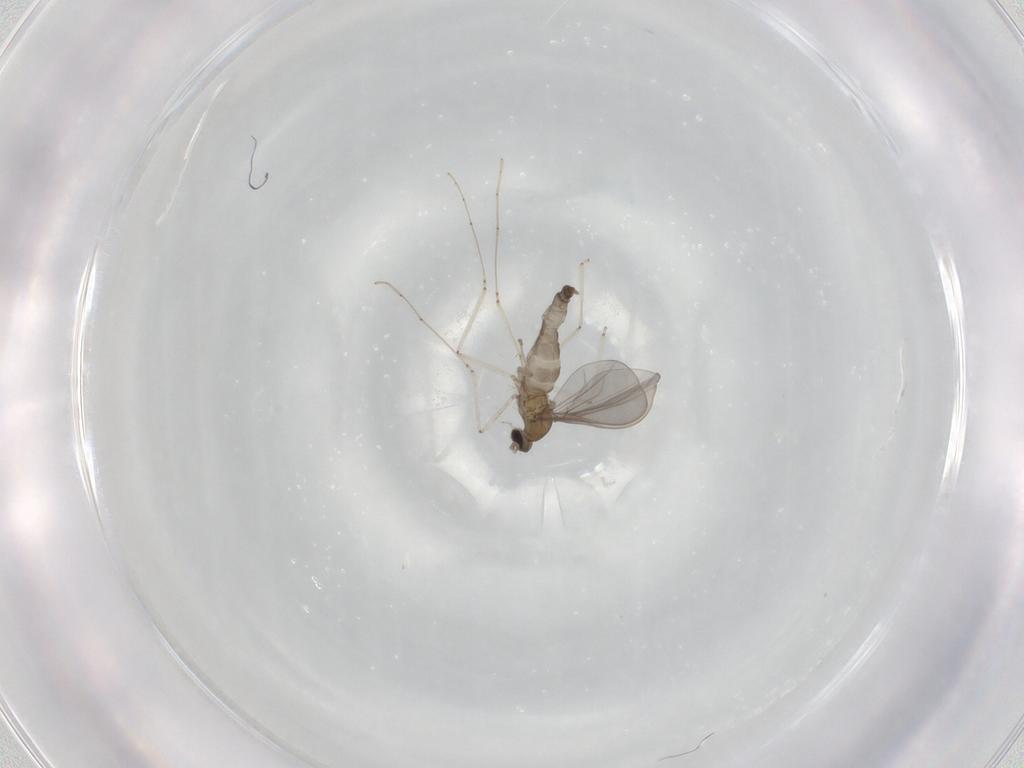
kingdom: Animalia
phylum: Arthropoda
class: Insecta
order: Diptera
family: Cecidomyiidae
